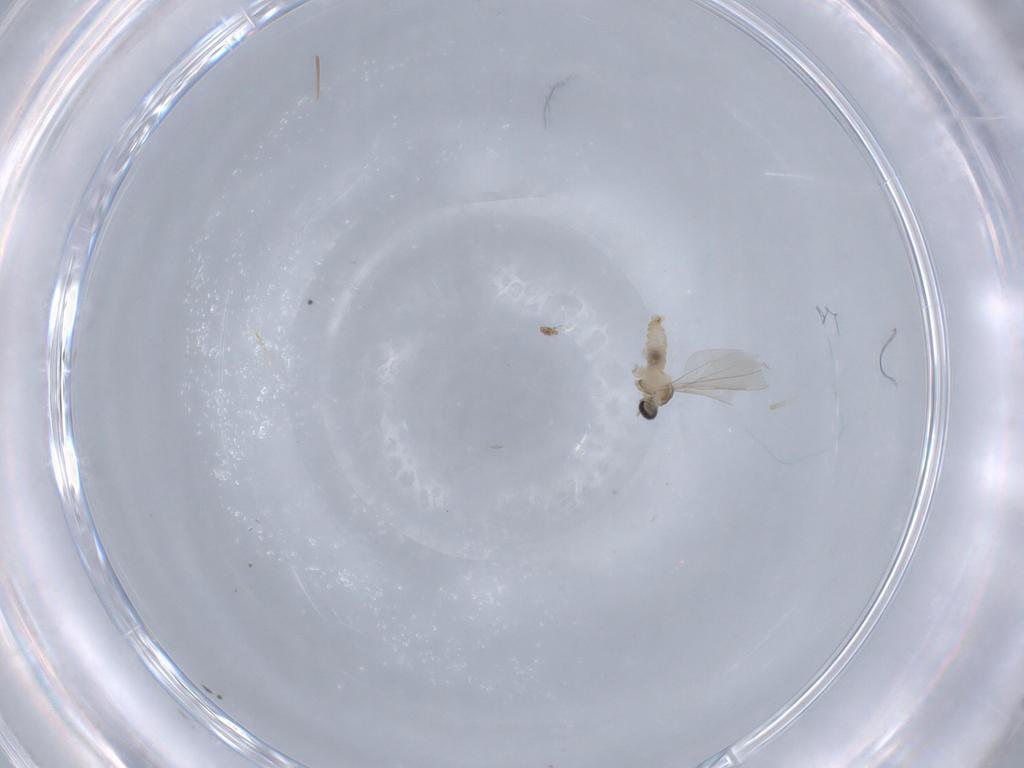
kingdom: Animalia
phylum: Arthropoda
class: Insecta
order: Diptera
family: Cecidomyiidae
